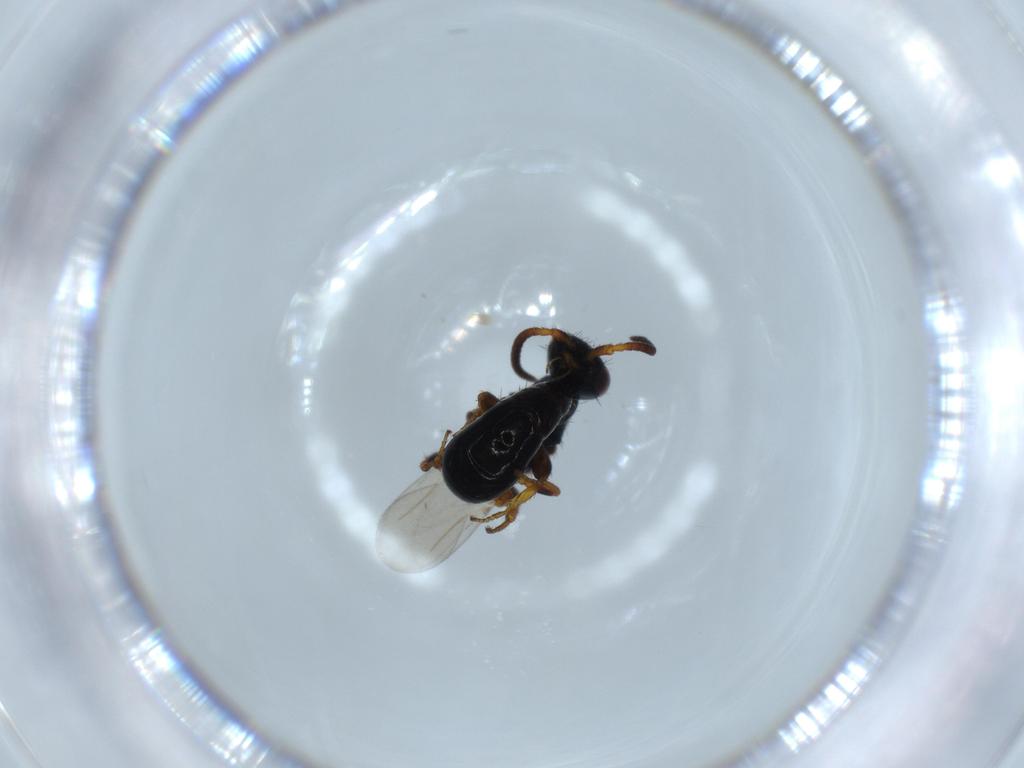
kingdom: Animalia
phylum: Arthropoda
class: Insecta
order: Hymenoptera
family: Bethylidae
